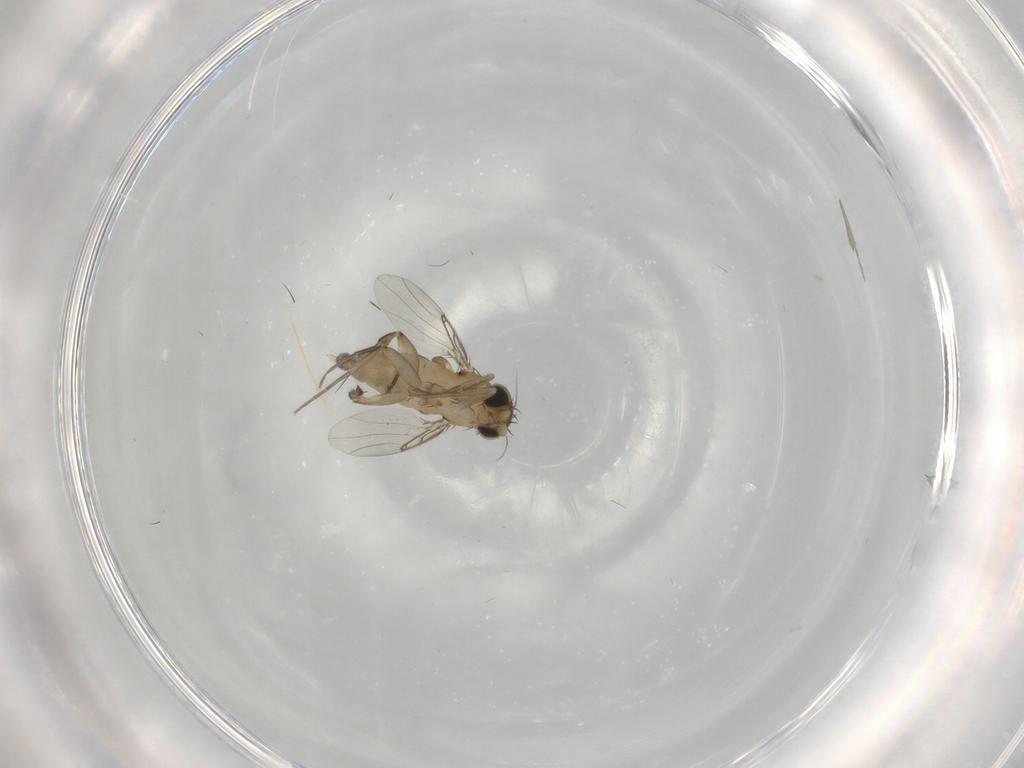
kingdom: Animalia
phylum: Arthropoda
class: Insecta
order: Diptera
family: Phoridae
